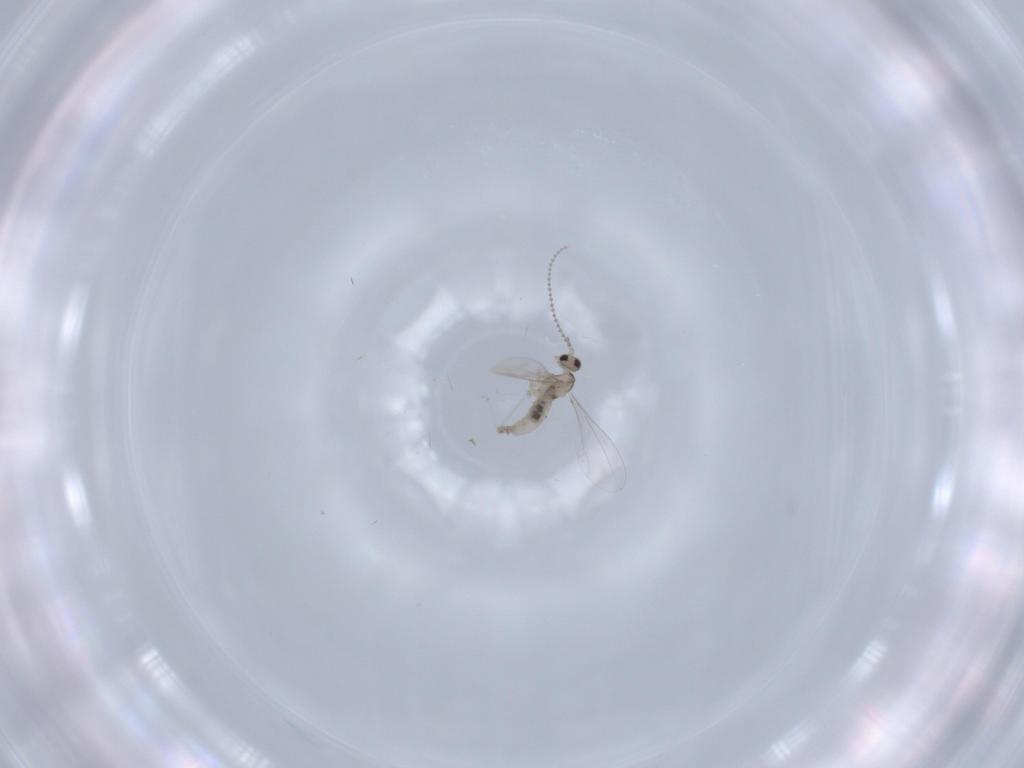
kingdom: Animalia
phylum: Arthropoda
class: Insecta
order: Diptera
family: Cecidomyiidae
